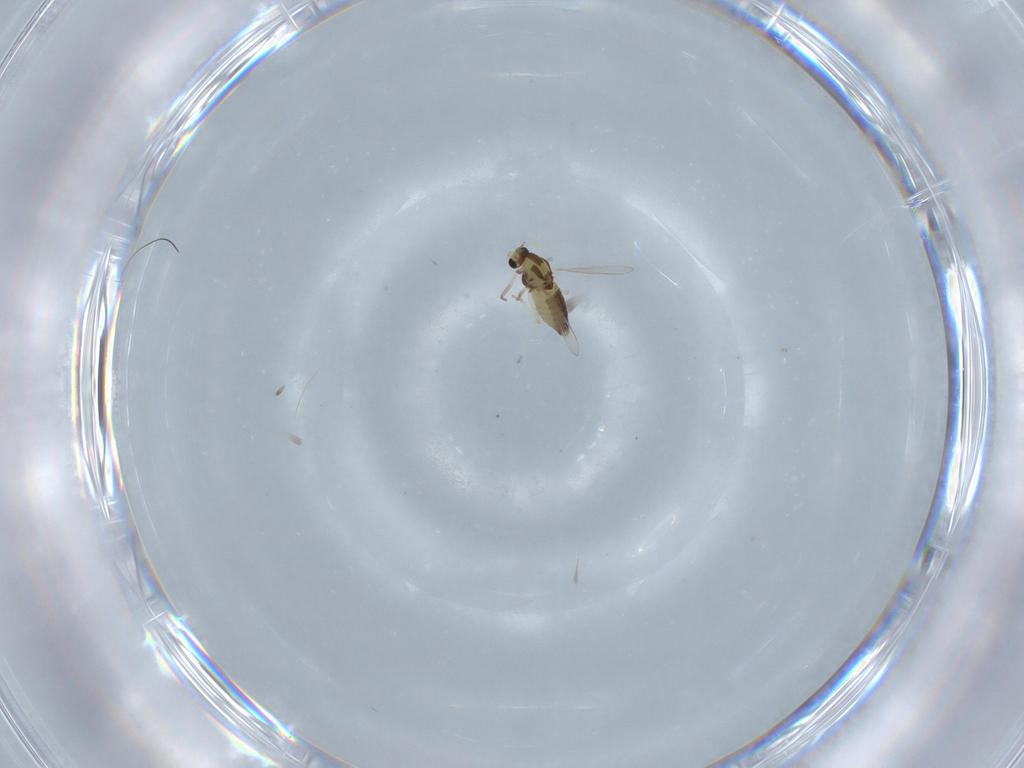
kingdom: Animalia
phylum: Arthropoda
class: Insecta
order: Diptera
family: Chironomidae
